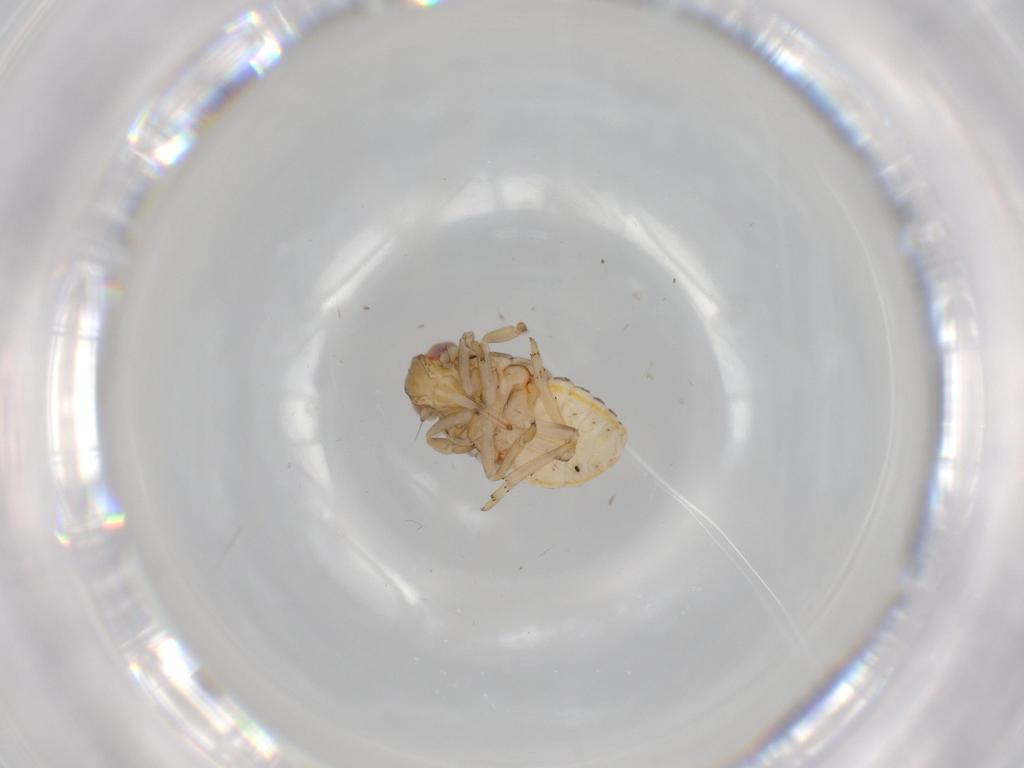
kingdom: Animalia
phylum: Arthropoda
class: Insecta
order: Hemiptera
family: Issidae
